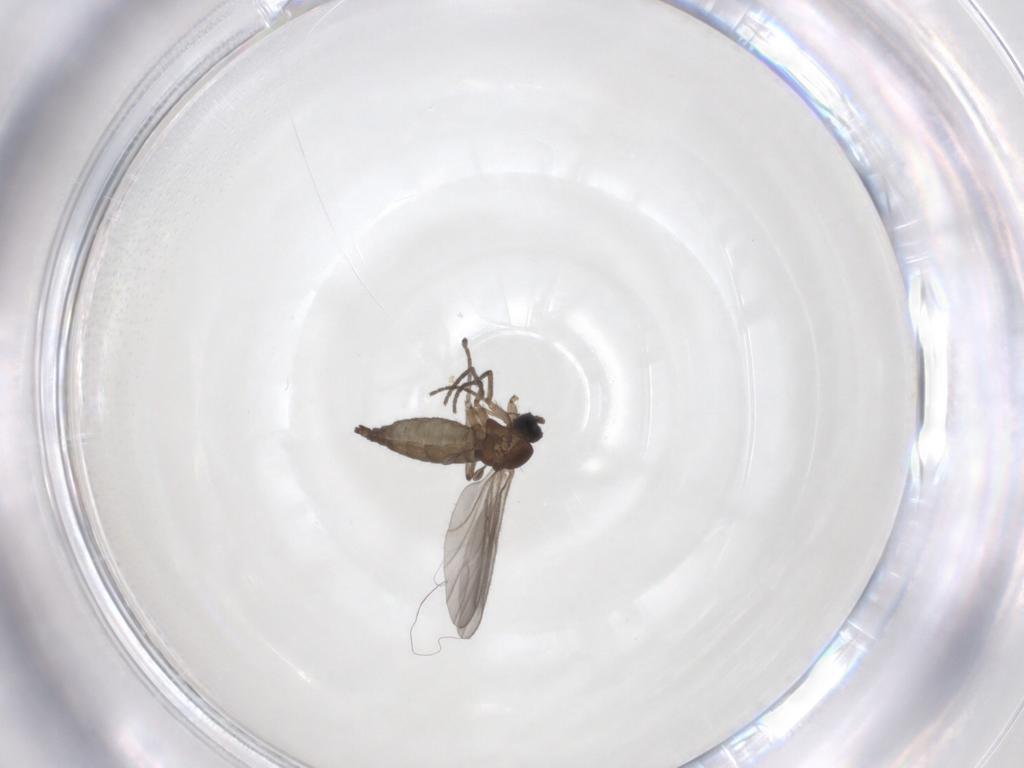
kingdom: Animalia
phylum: Arthropoda
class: Insecta
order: Diptera
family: Sciaridae
